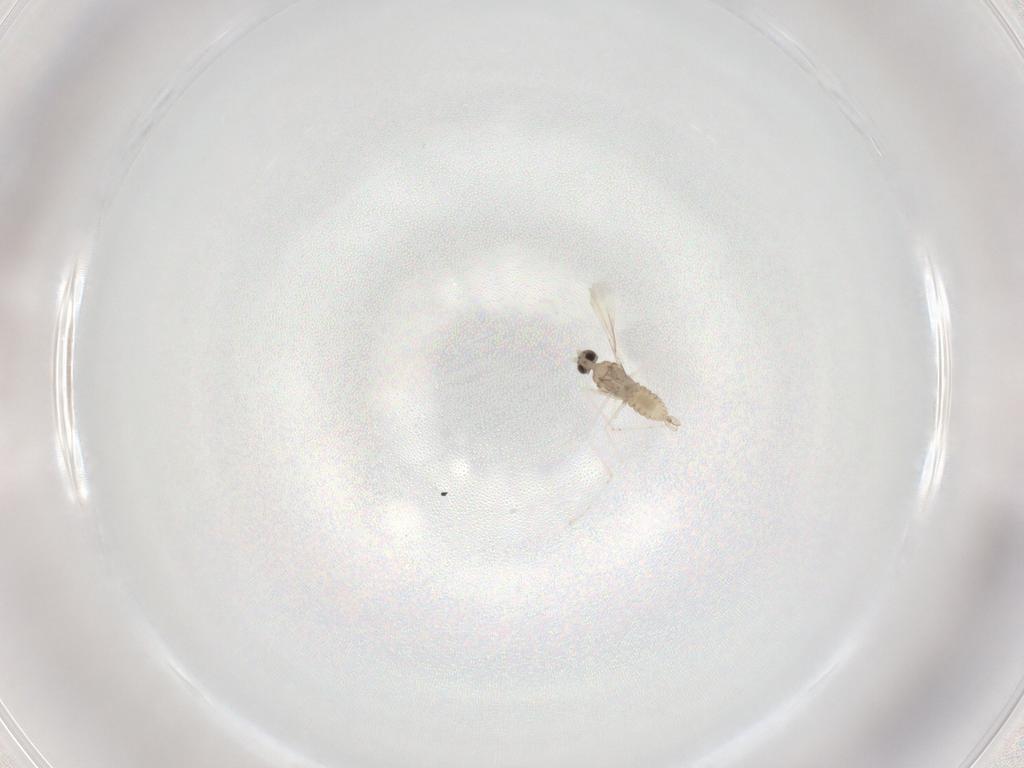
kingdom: Animalia
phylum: Arthropoda
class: Insecta
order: Diptera
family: Cecidomyiidae
